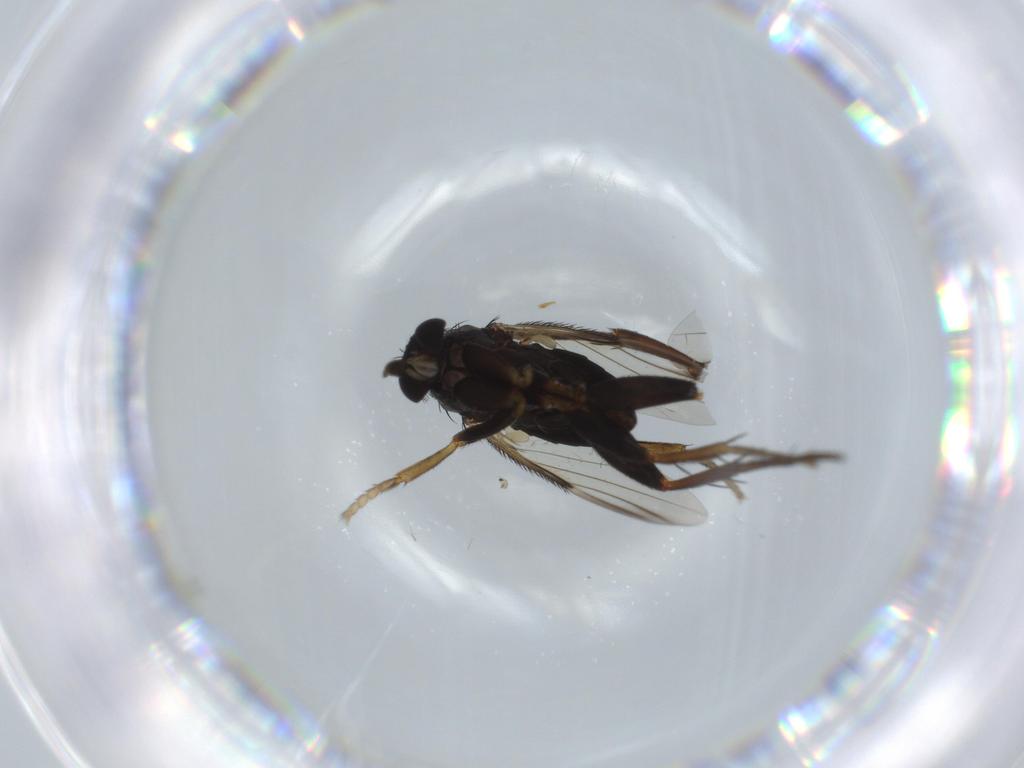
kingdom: Animalia
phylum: Arthropoda
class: Insecta
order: Diptera
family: Phoridae
